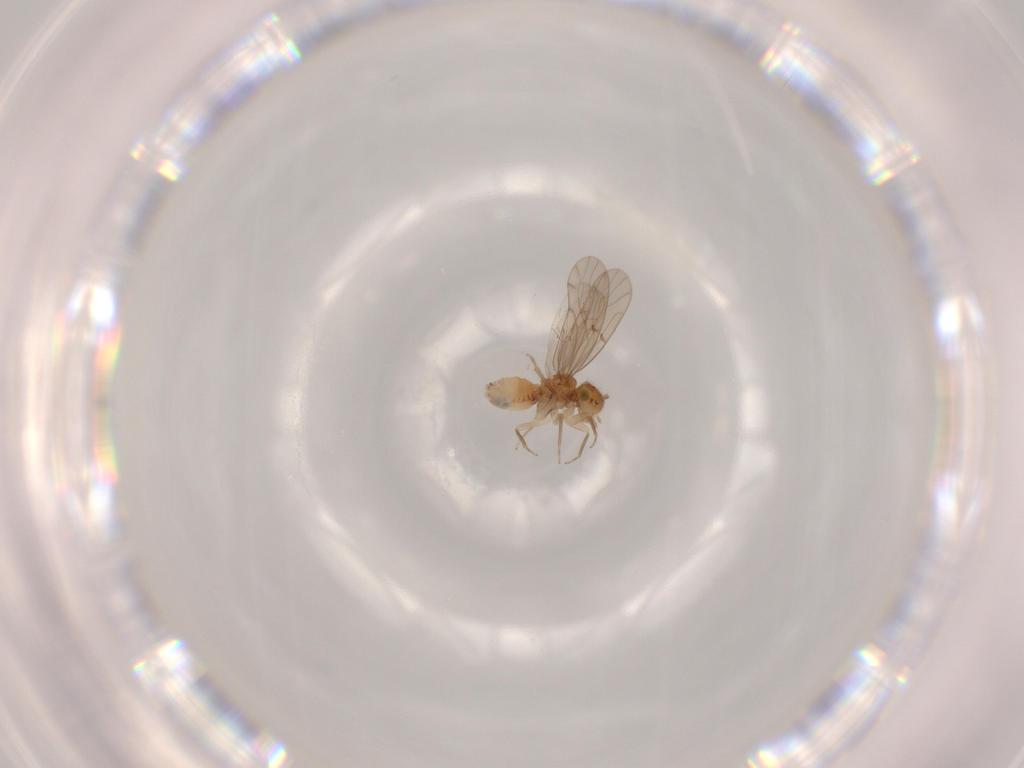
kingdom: Animalia
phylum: Arthropoda
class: Insecta
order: Psocodea
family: Ectopsocidae
